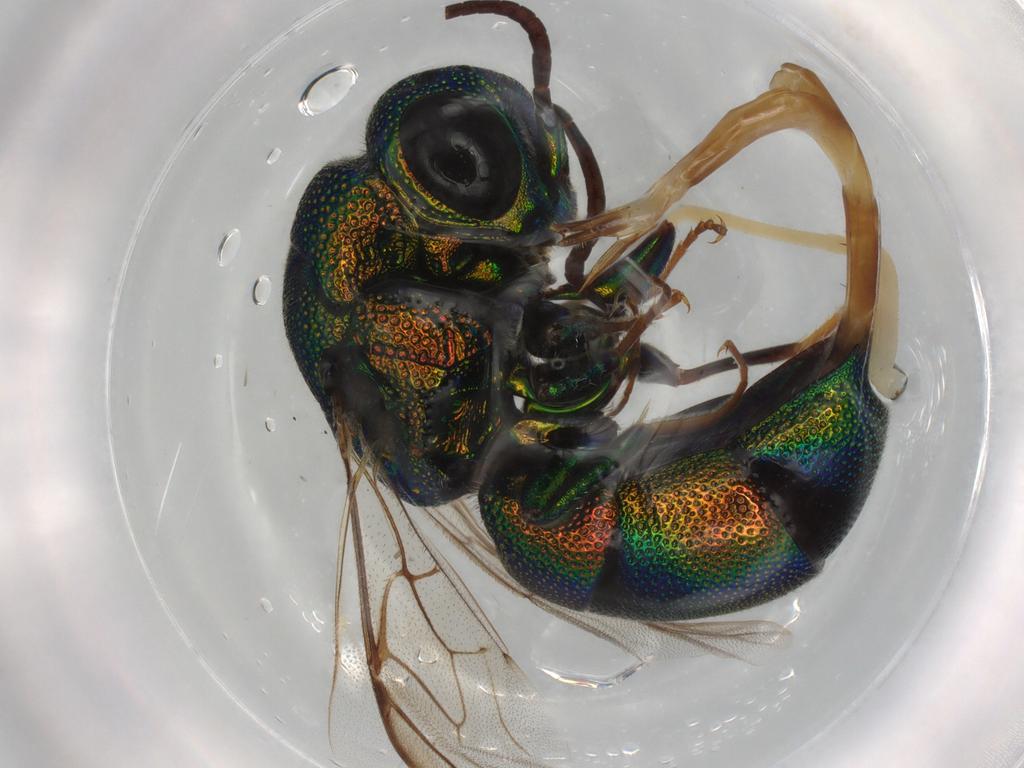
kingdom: Animalia
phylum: Arthropoda
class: Insecta
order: Hymenoptera
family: Chrysididae
